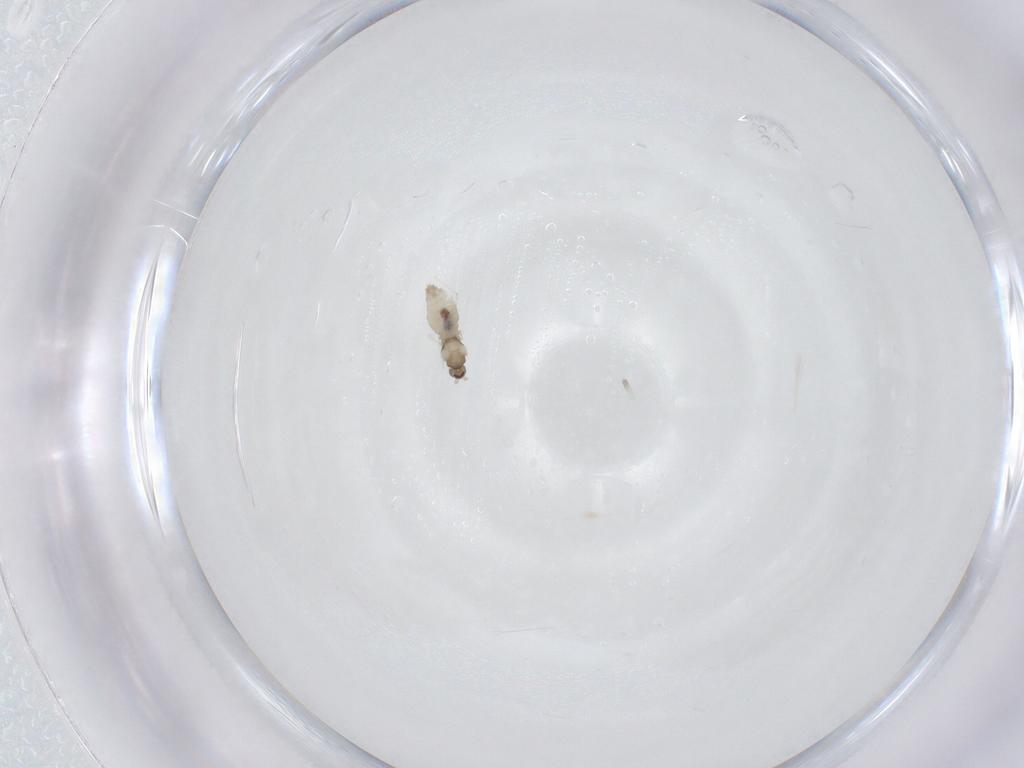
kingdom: Animalia
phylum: Arthropoda
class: Insecta
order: Diptera
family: Cecidomyiidae
